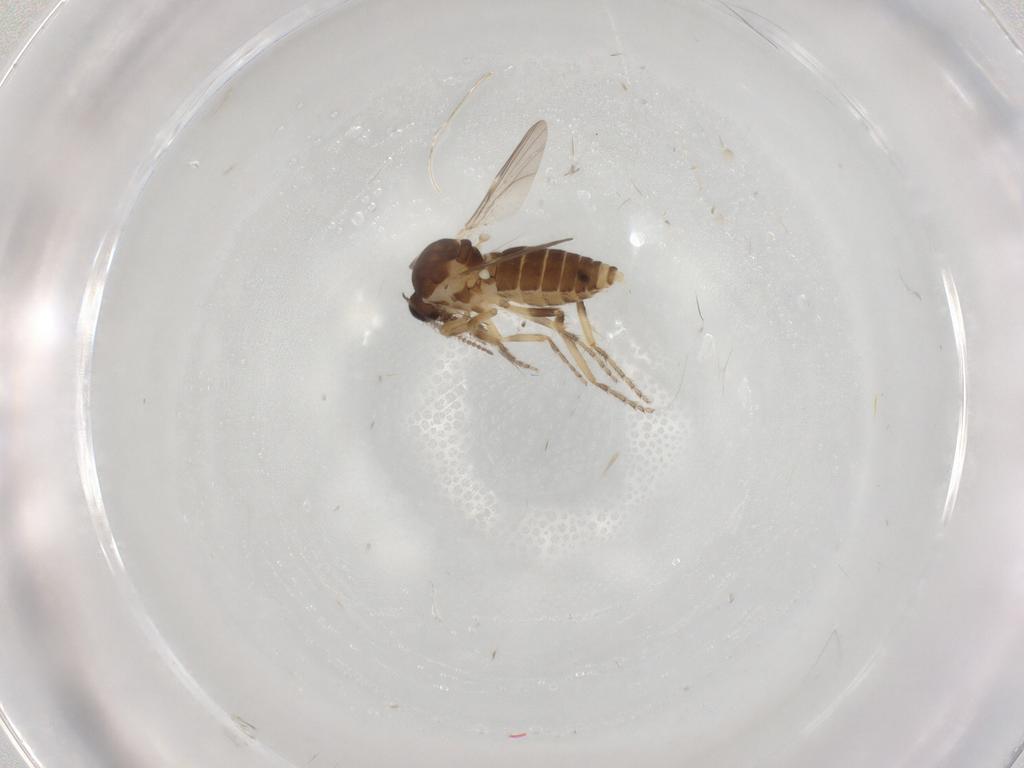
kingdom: Animalia
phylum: Arthropoda
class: Insecta
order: Diptera
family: Ceratopogonidae
